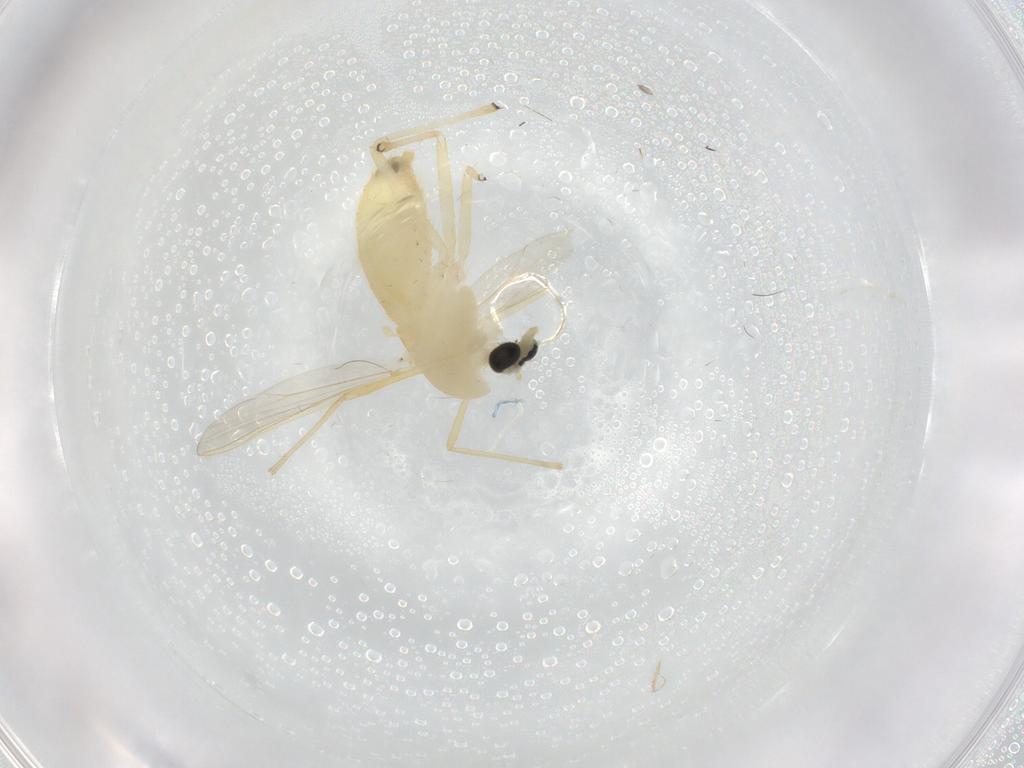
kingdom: Animalia
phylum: Arthropoda
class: Insecta
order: Diptera
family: Chironomidae
